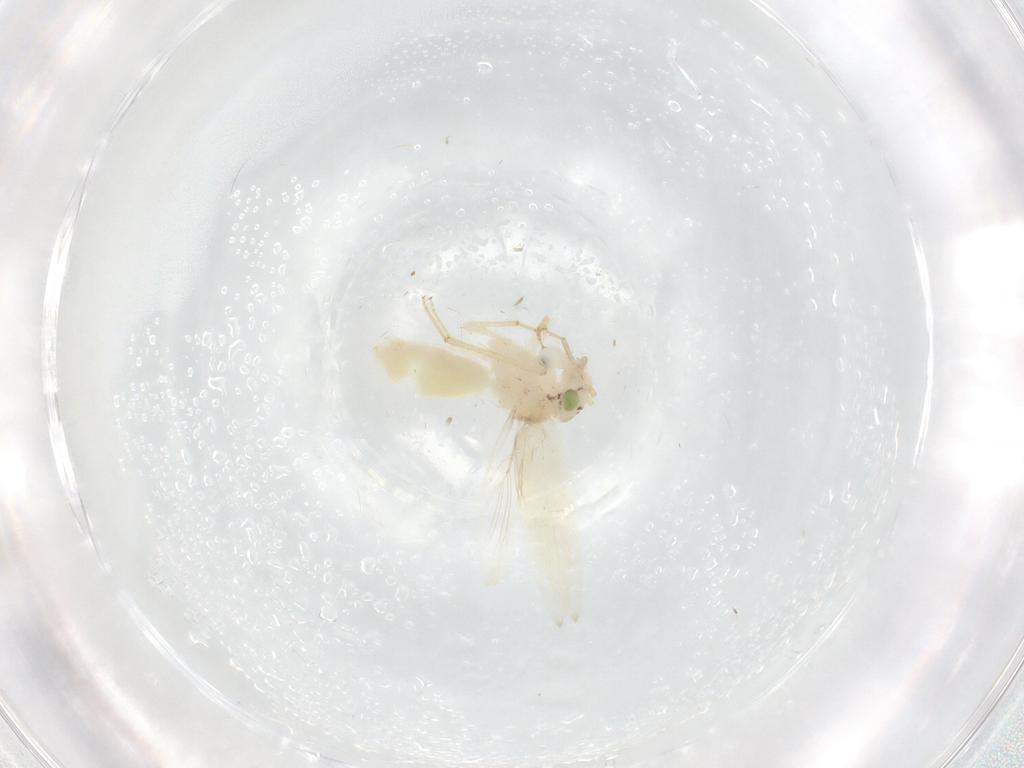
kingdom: Animalia
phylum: Arthropoda
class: Insecta
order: Psocodea
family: Lepidopsocidae
